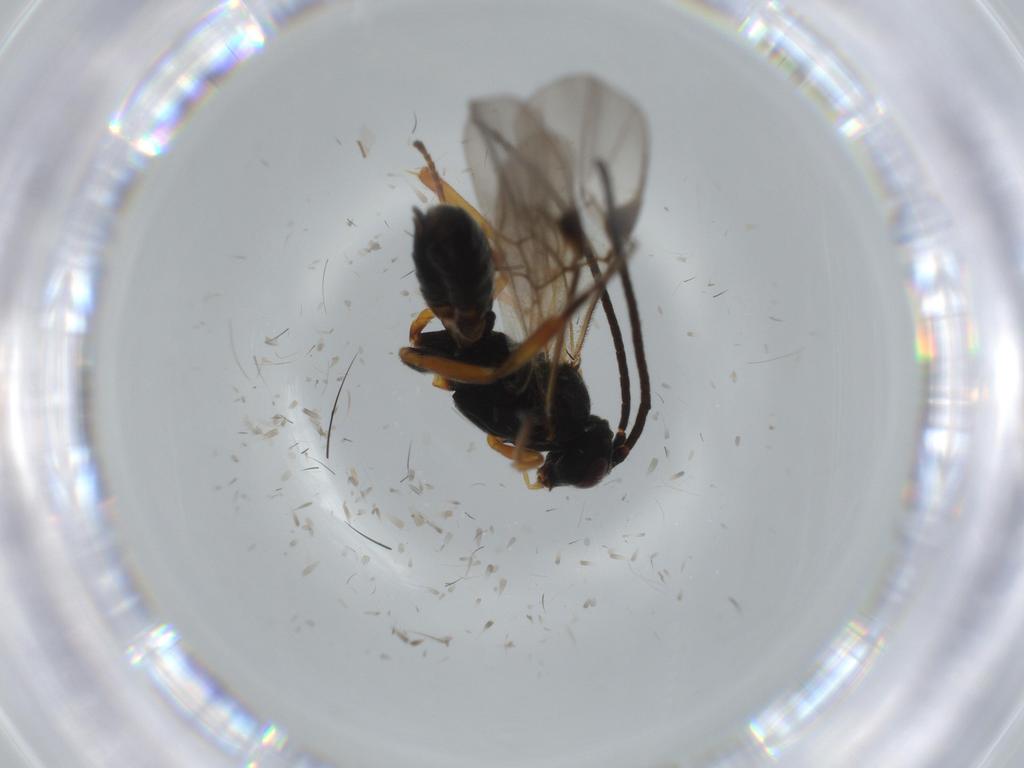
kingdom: Animalia
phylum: Arthropoda
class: Insecta
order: Hymenoptera
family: Braconidae
